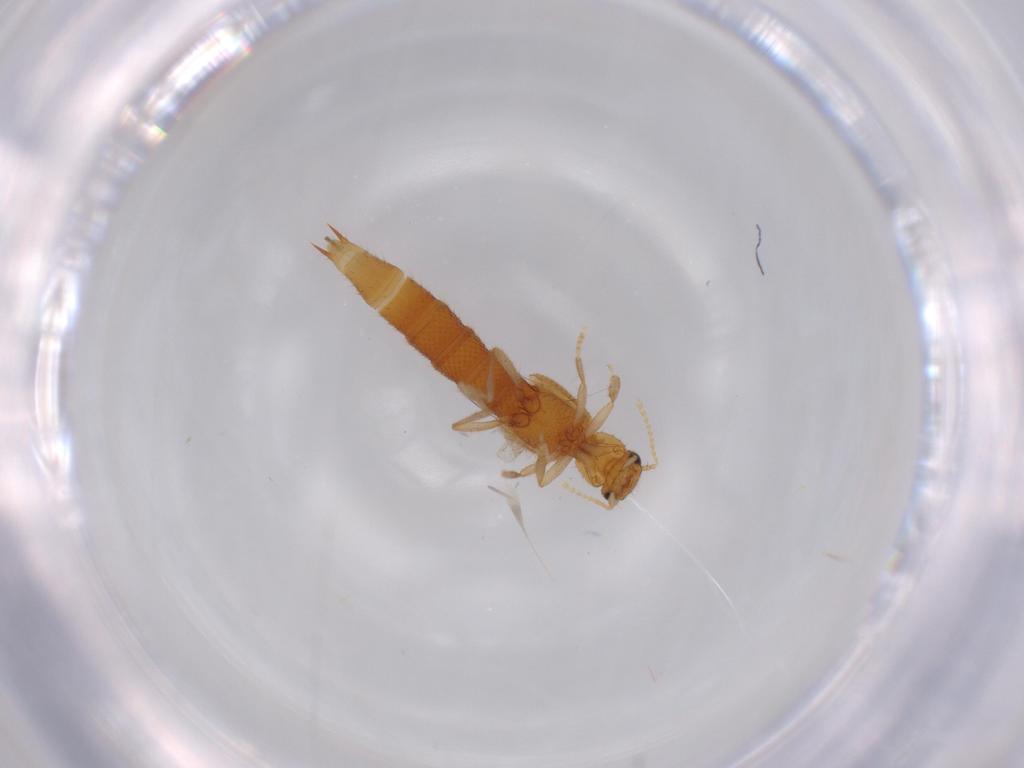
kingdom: Animalia
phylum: Arthropoda
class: Insecta
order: Coleoptera
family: Staphylinidae
